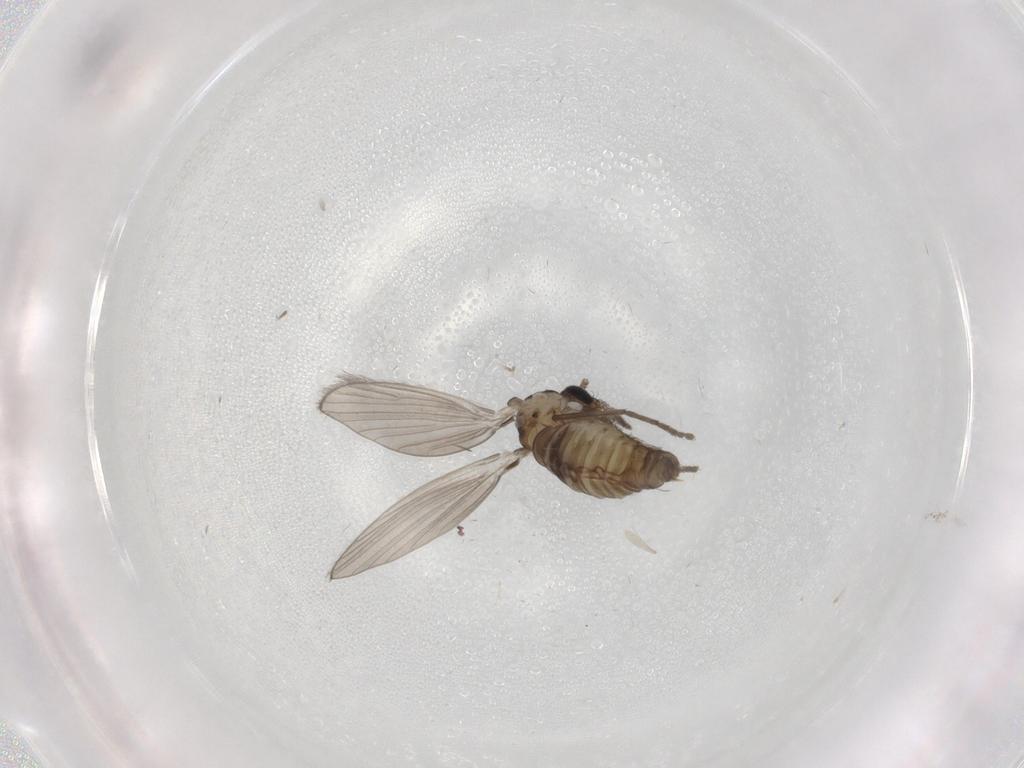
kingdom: Animalia
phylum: Arthropoda
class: Insecta
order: Diptera
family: Psychodidae
